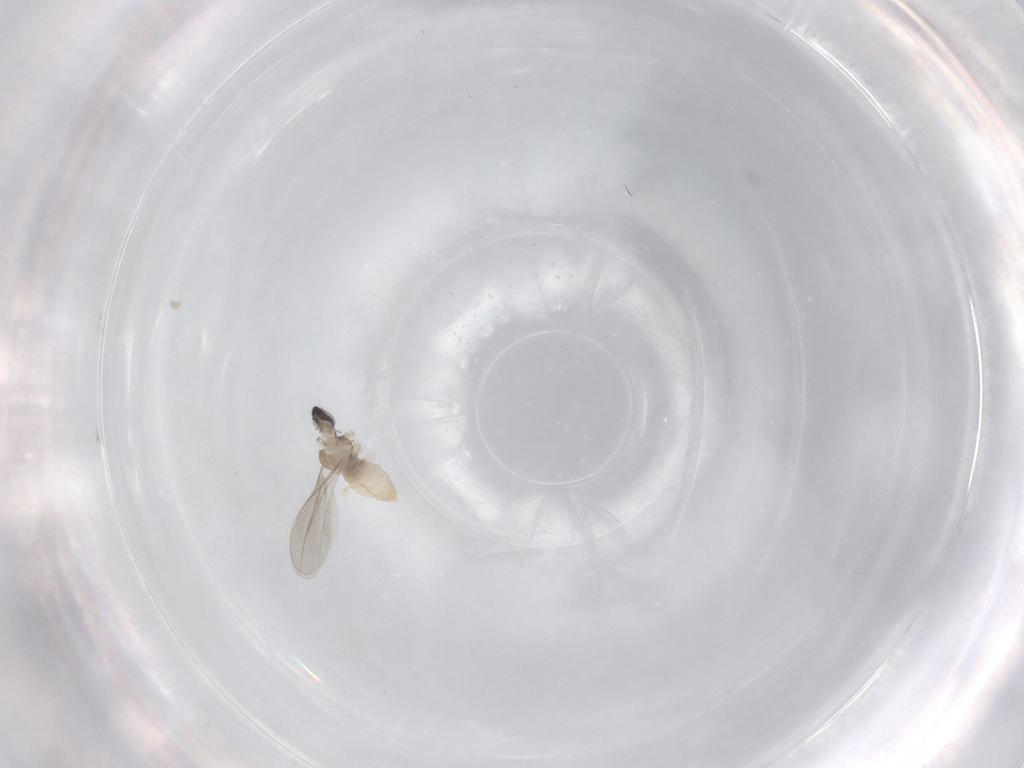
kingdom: Animalia
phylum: Arthropoda
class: Insecta
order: Diptera
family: Cecidomyiidae
